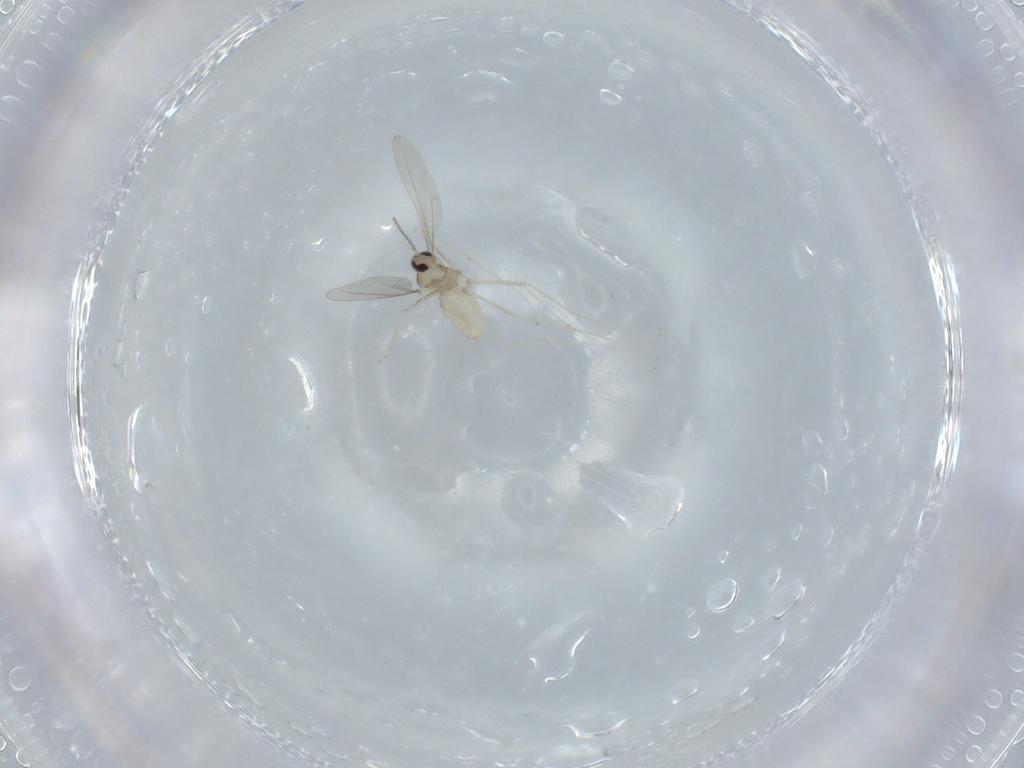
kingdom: Animalia
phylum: Arthropoda
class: Insecta
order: Diptera
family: Cecidomyiidae
